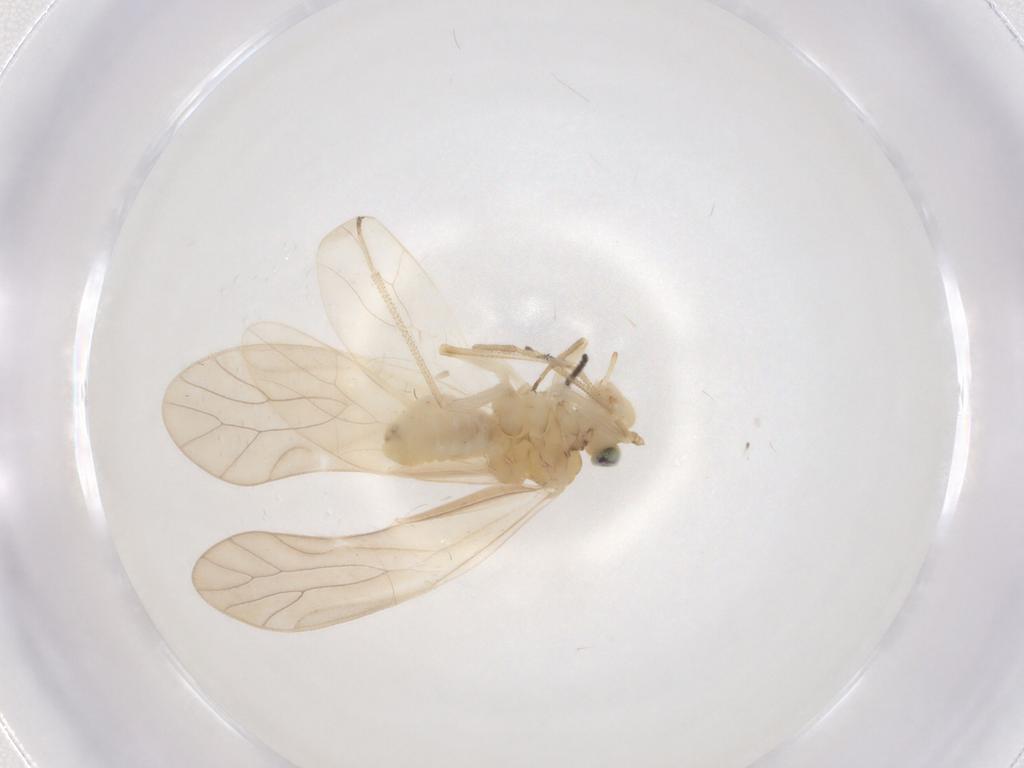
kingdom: Animalia
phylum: Arthropoda
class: Insecta
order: Psocodea
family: Caeciliusidae
